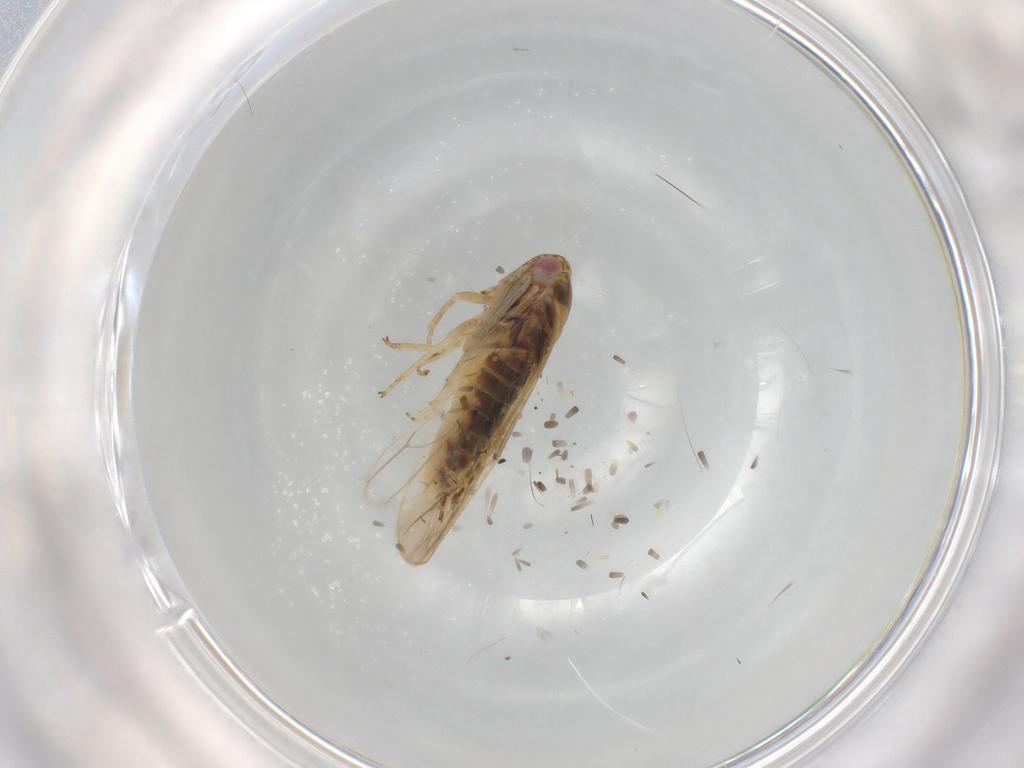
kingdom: Animalia
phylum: Arthropoda
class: Insecta
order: Hemiptera
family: Cicadellidae
